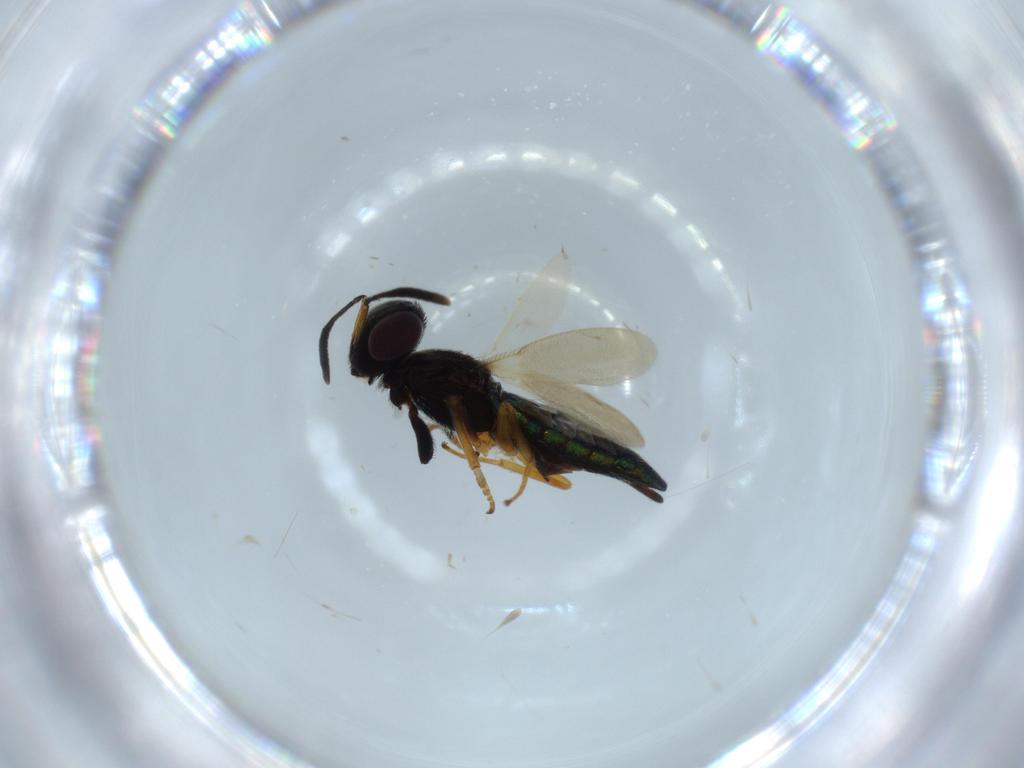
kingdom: Animalia
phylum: Arthropoda
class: Insecta
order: Hymenoptera
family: Eupelmidae
